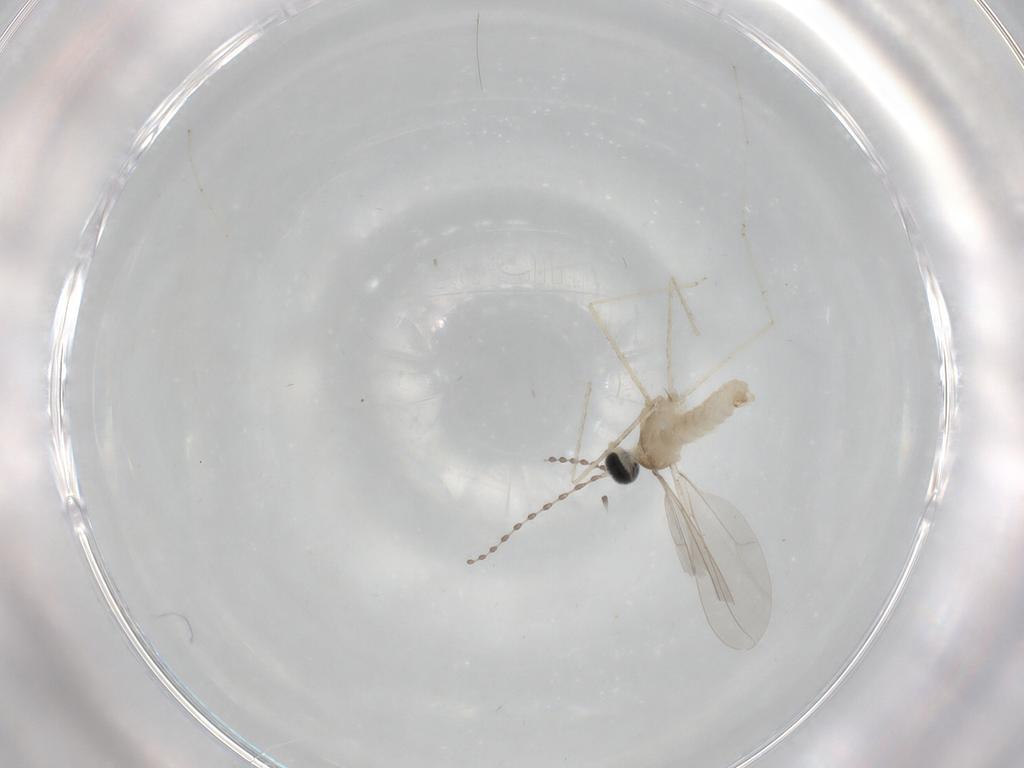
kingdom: Animalia
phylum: Arthropoda
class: Insecta
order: Diptera
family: Cecidomyiidae
